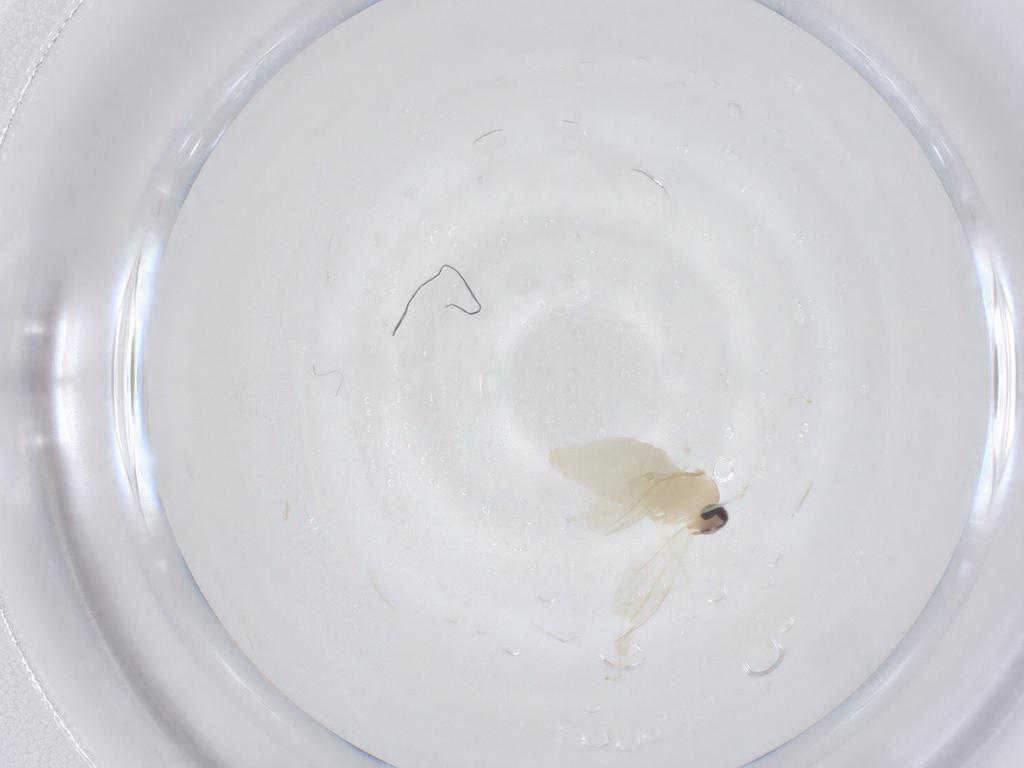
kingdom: Animalia
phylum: Arthropoda
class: Insecta
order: Diptera
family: Cecidomyiidae
